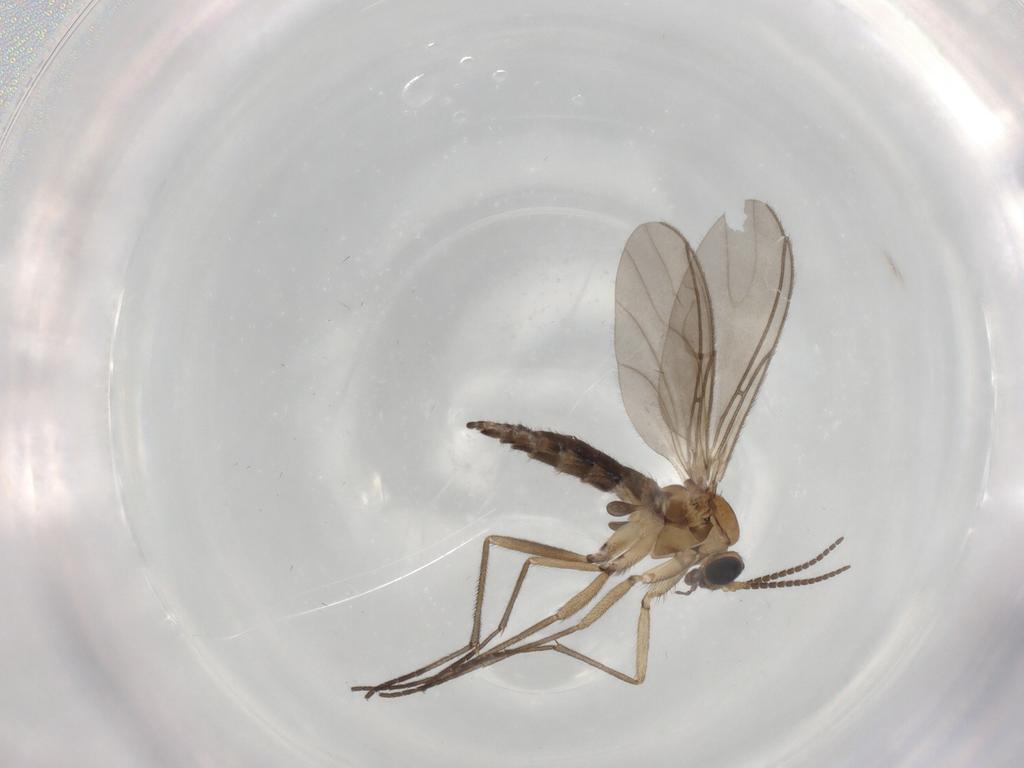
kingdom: Animalia
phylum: Arthropoda
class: Insecta
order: Diptera
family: Sciaridae
